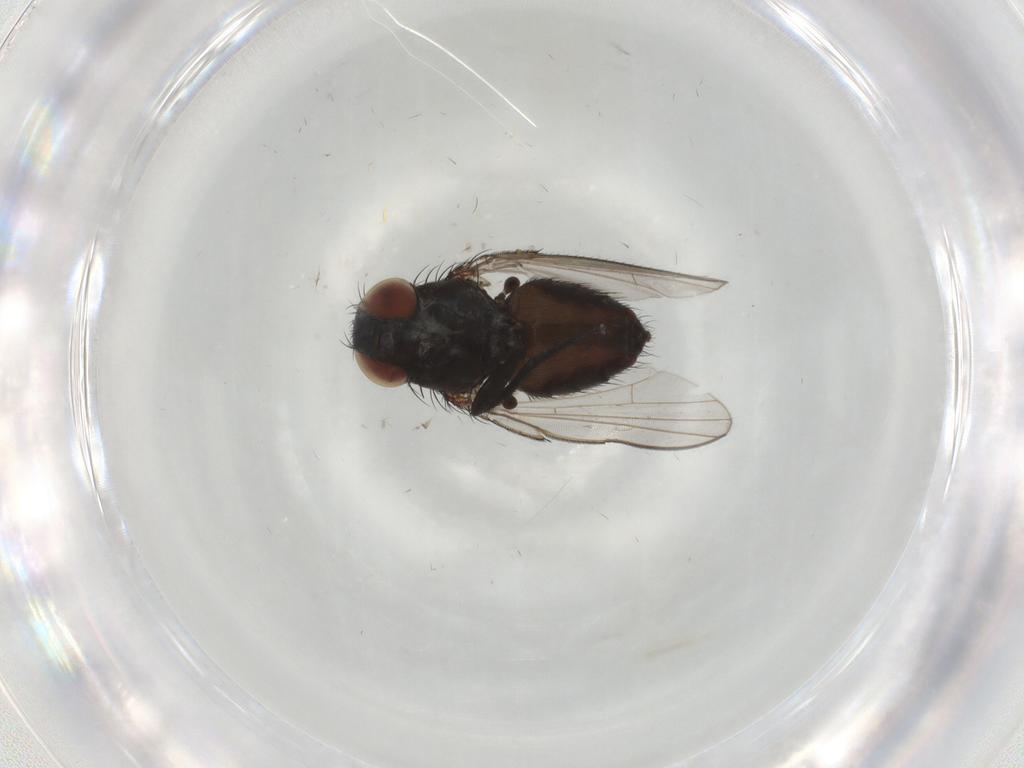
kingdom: Animalia
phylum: Arthropoda
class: Insecta
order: Diptera
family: Milichiidae
